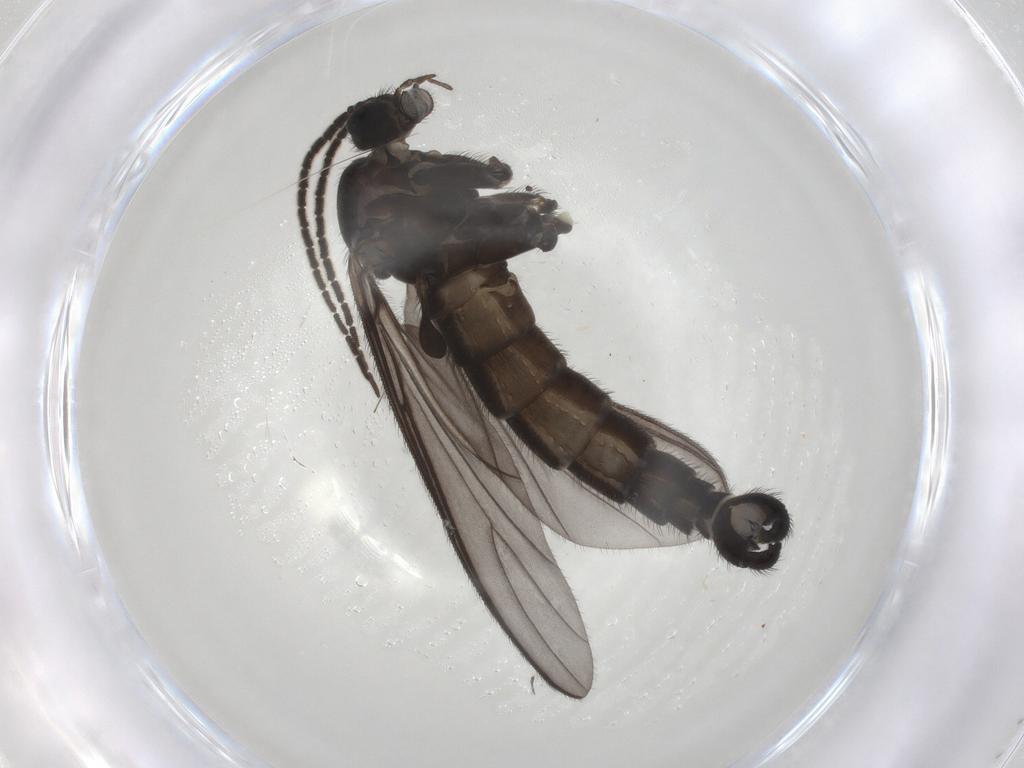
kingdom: Animalia
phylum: Arthropoda
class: Insecta
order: Diptera
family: Sciaridae
